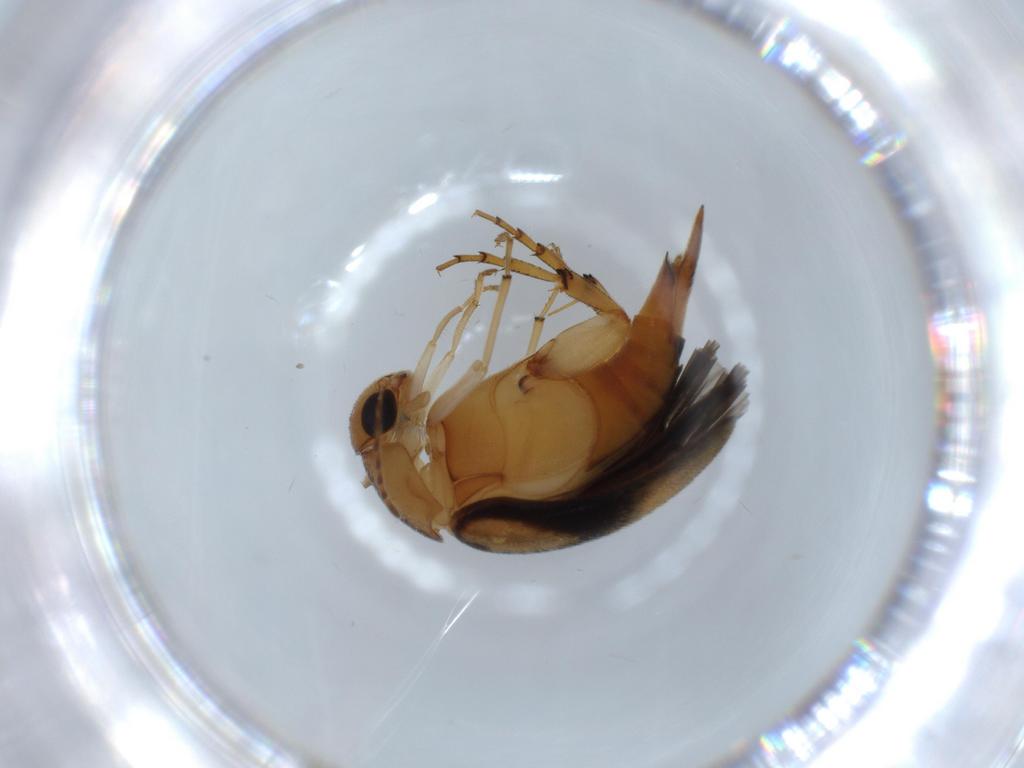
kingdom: Animalia
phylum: Arthropoda
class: Insecta
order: Coleoptera
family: Mordellidae
